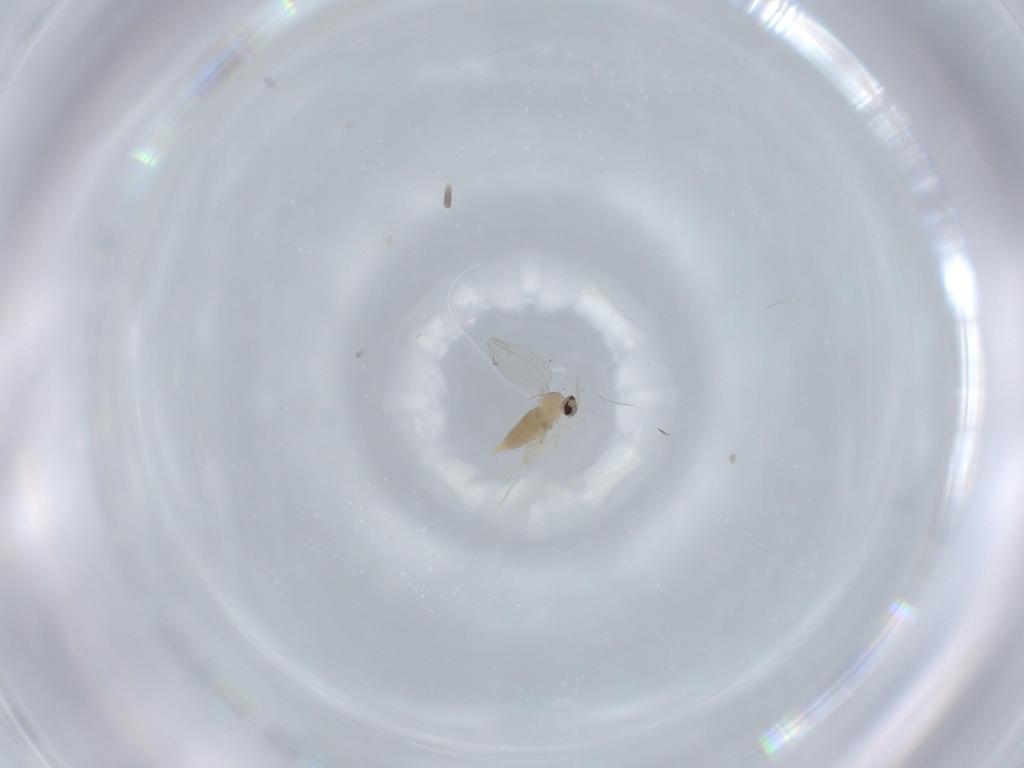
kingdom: Animalia
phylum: Arthropoda
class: Insecta
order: Diptera
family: Cecidomyiidae
